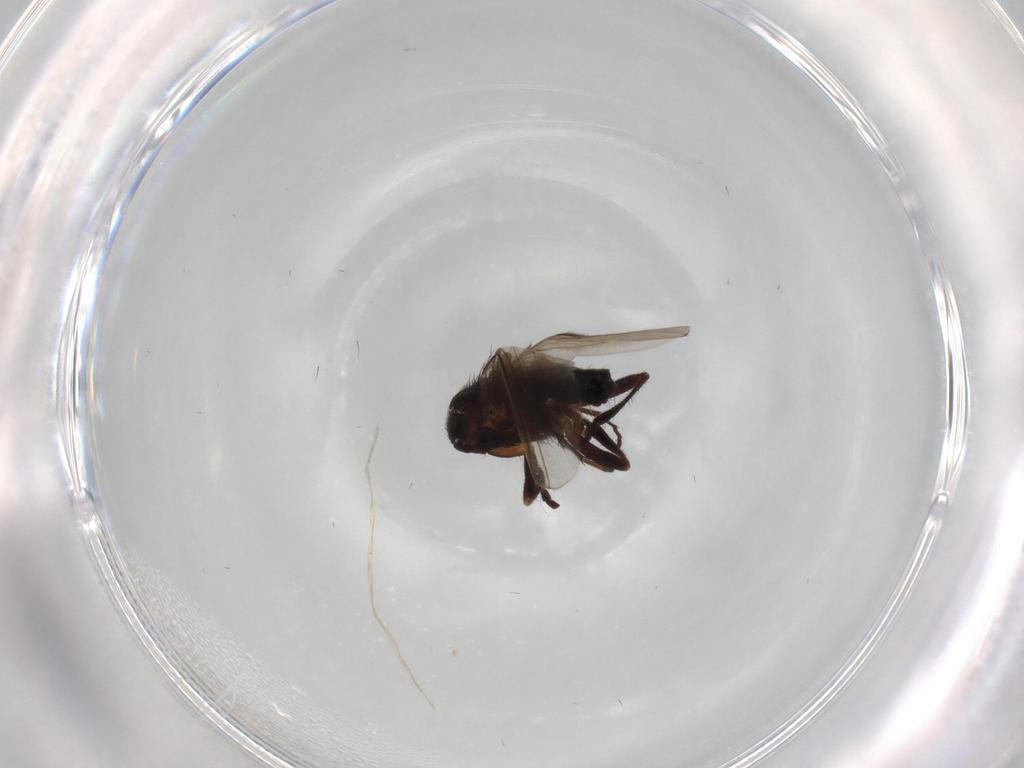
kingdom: Animalia
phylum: Arthropoda
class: Insecta
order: Diptera
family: Sphaeroceridae
